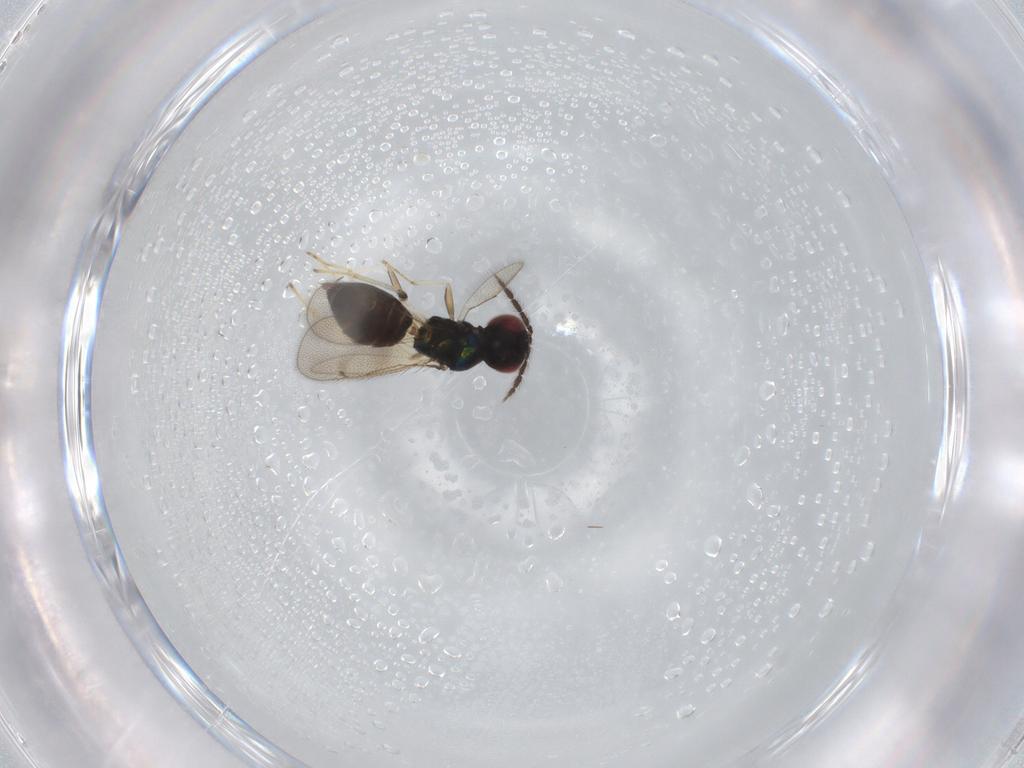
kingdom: Animalia
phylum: Arthropoda
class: Insecta
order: Hymenoptera
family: Eulophidae
